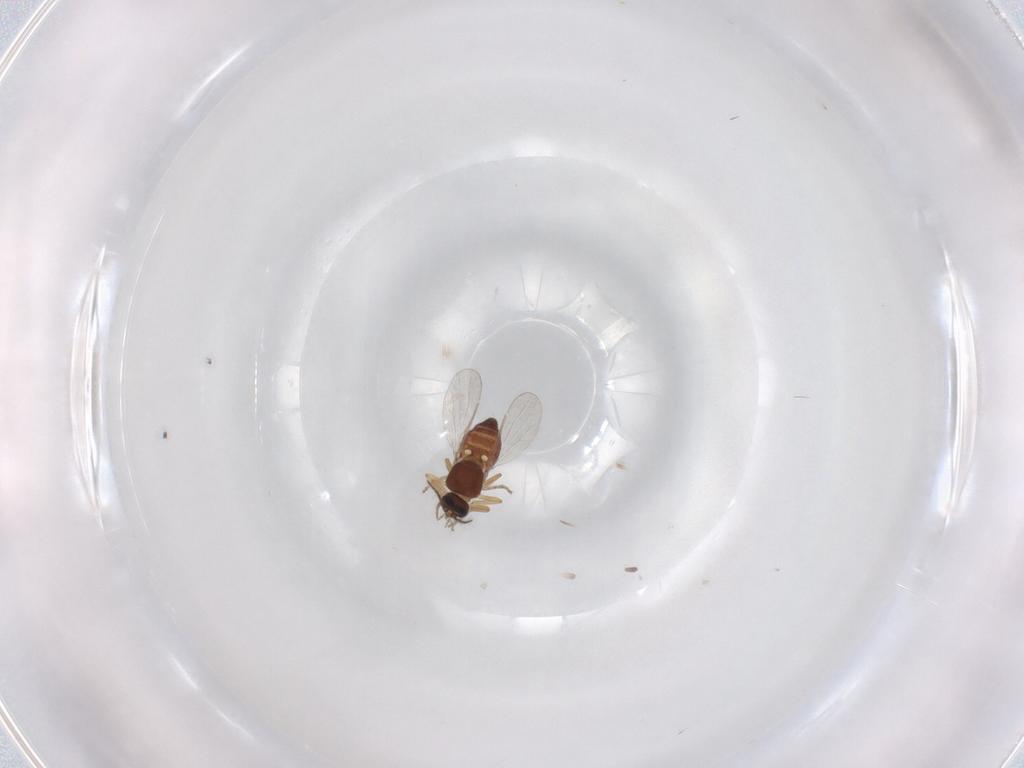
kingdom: Animalia
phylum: Arthropoda
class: Insecta
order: Diptera
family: Ceratopogonidae
